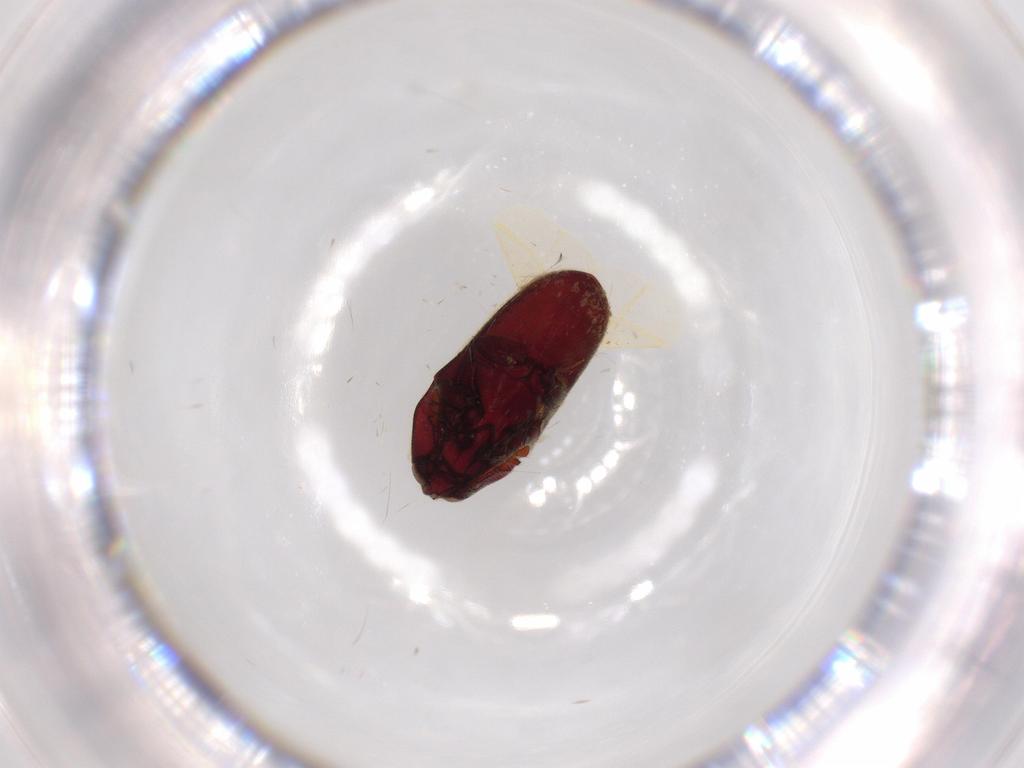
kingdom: Animalia
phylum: Arthropoda
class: Insecta
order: Coleoptera
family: Throscidae
